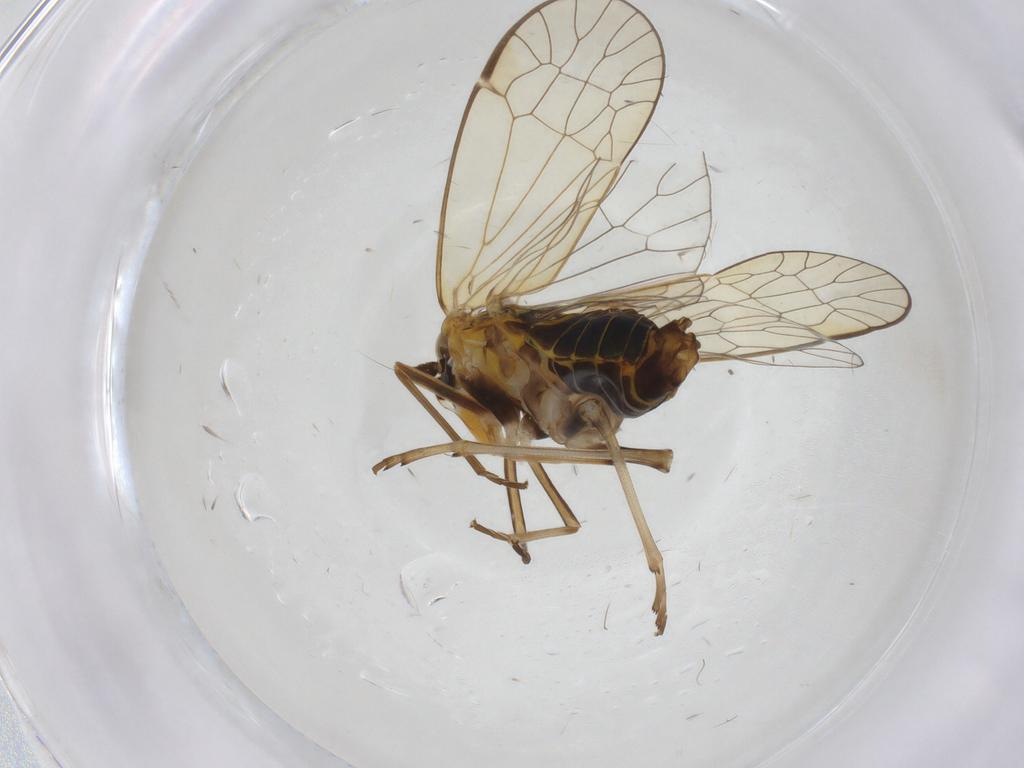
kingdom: Animalia
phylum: Arthropoda
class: Insecta
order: Hemiptera
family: Kinnaridae
